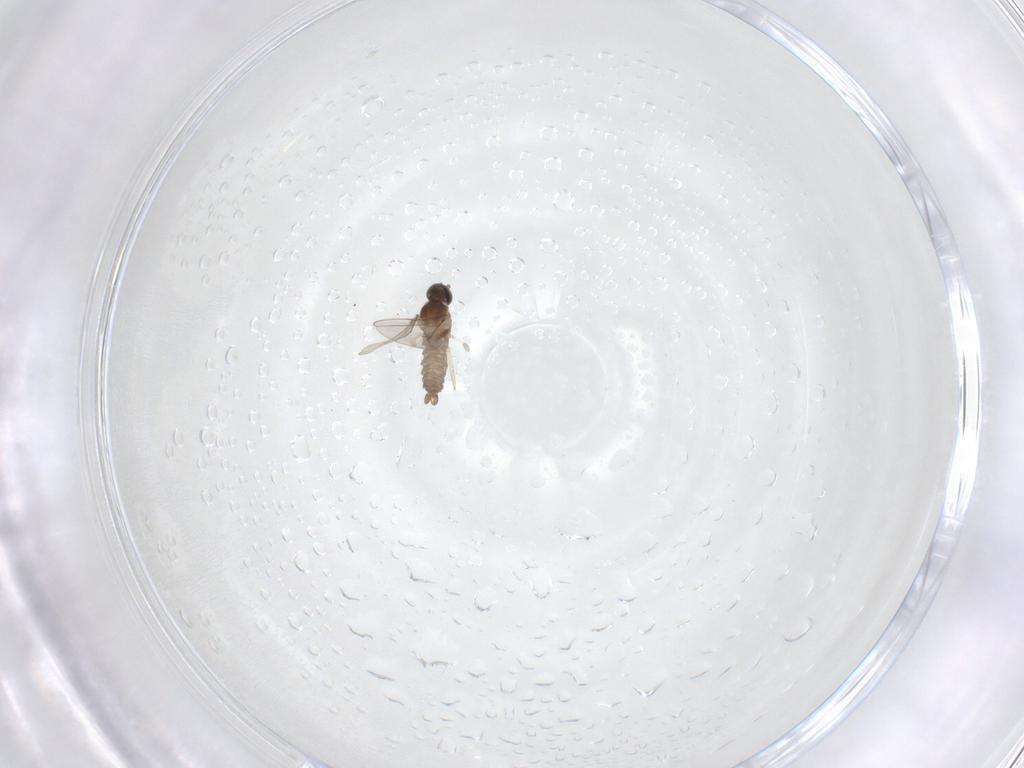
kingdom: Animalia
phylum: Arthropoda
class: Insecta
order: Diptera
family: Cecidomyiidae
